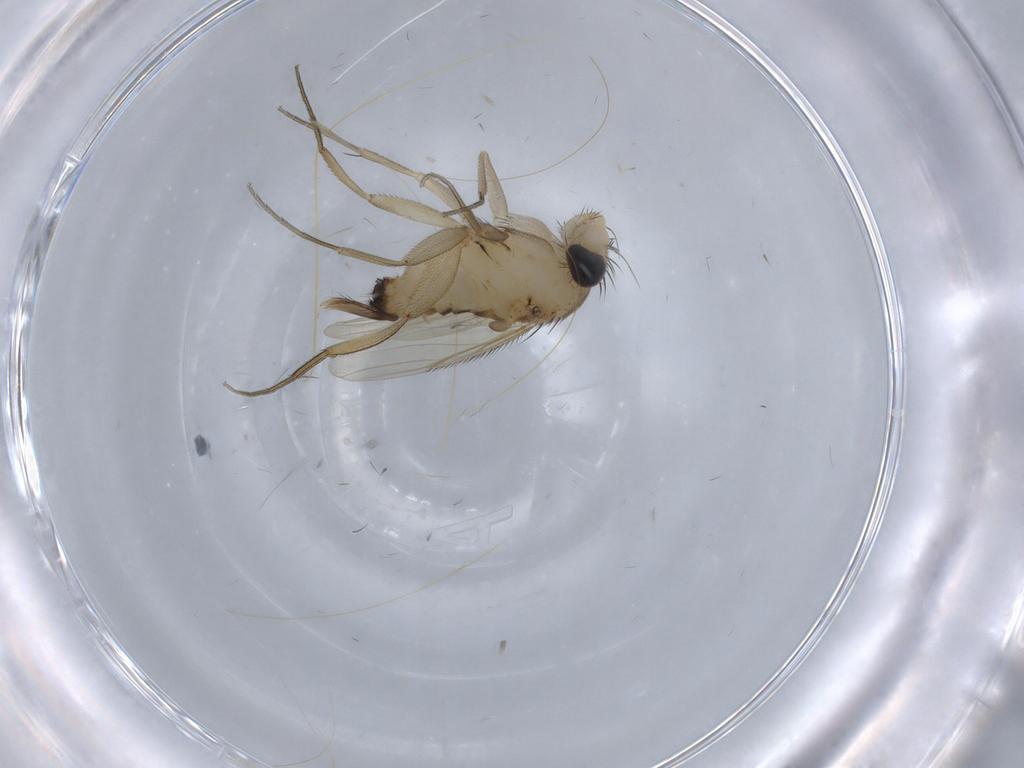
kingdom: Animalia
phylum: Arthropoda
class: Insecta
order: Diptera
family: Phoridae
